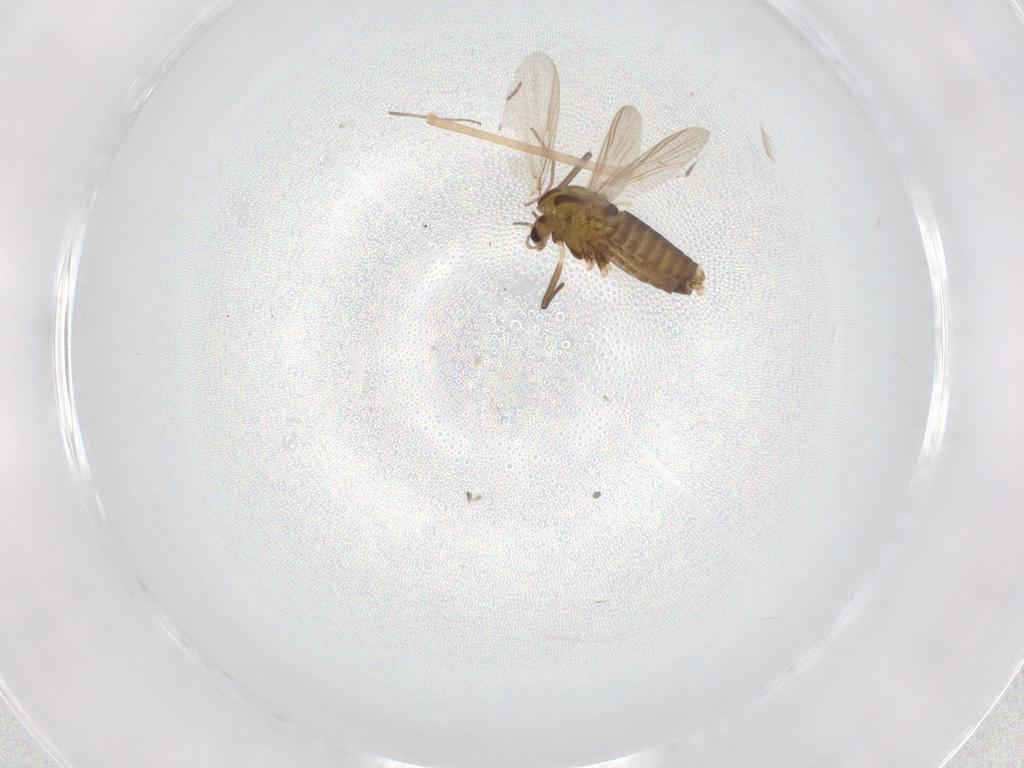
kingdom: Animalia
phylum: Arthropoda
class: Insecta
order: Diptera
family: Chironomidae
